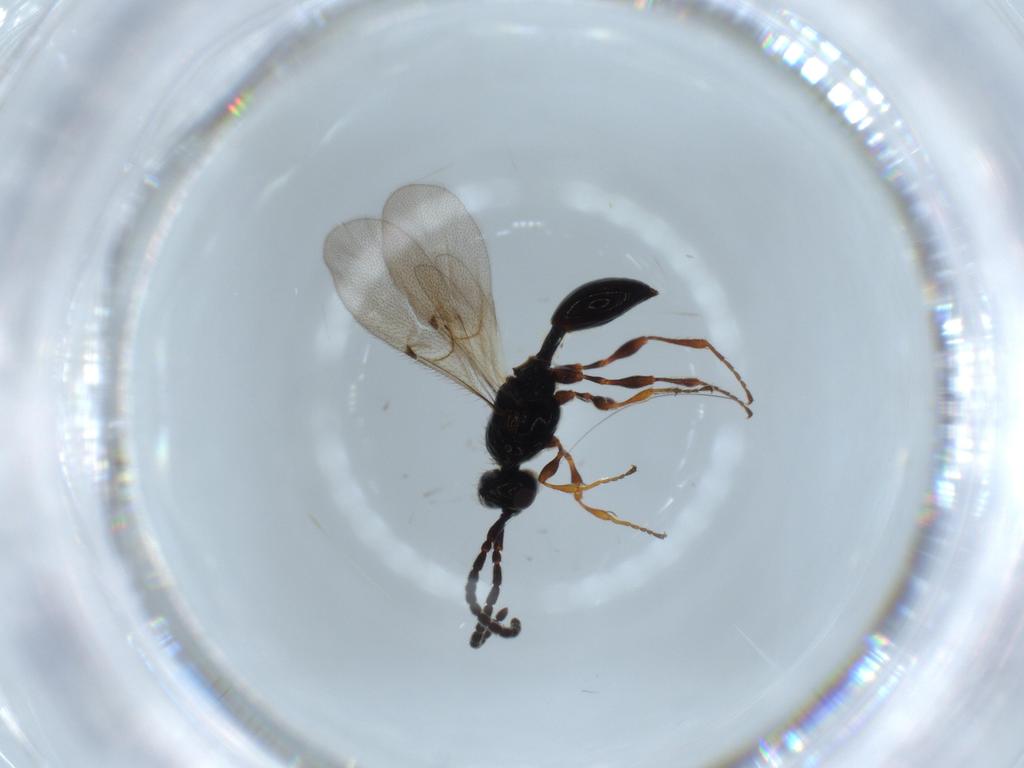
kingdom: Animalia
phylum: Arthropoda
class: Insecta
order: Hymenoptera
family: Diapriidae
